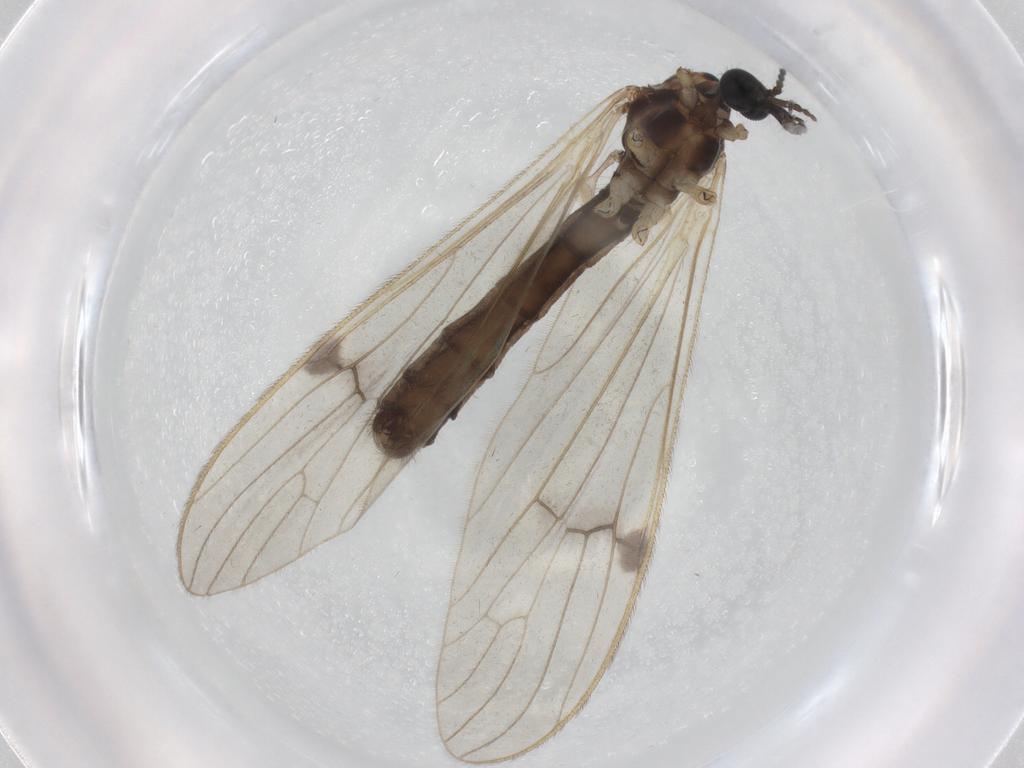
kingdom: Animalia
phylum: Arthropoda
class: Insecta
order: Diptera
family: Limoniidae
